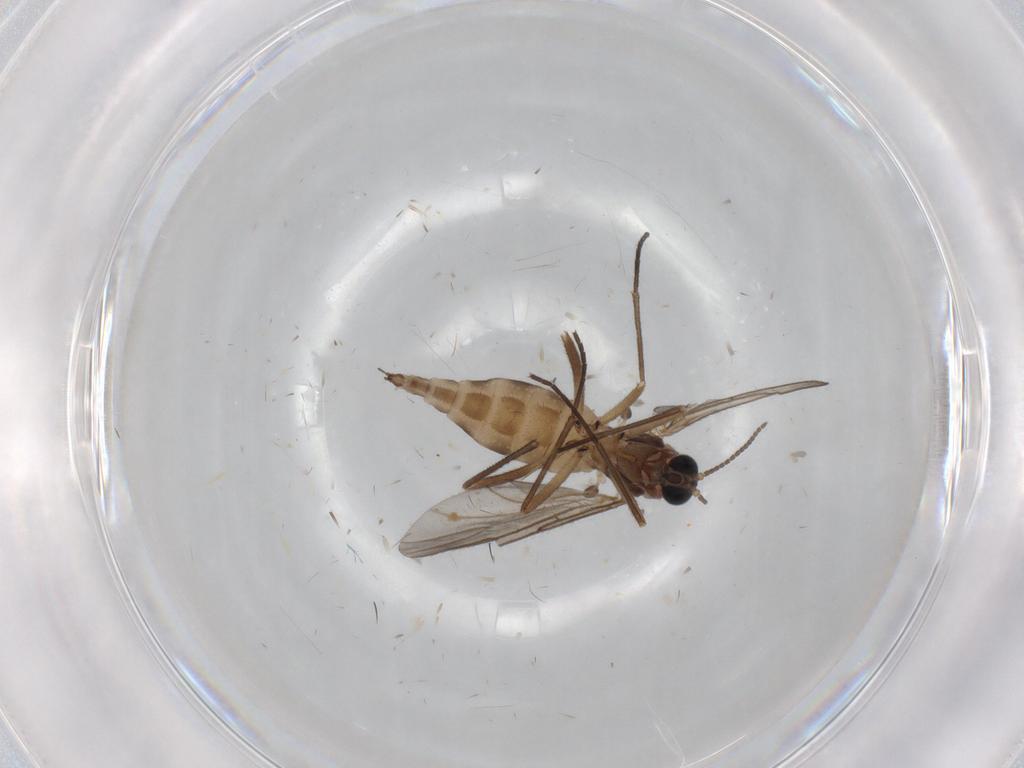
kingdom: Animalia
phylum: Arthropoda
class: Insecta
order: Diptera
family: Sciaridae
